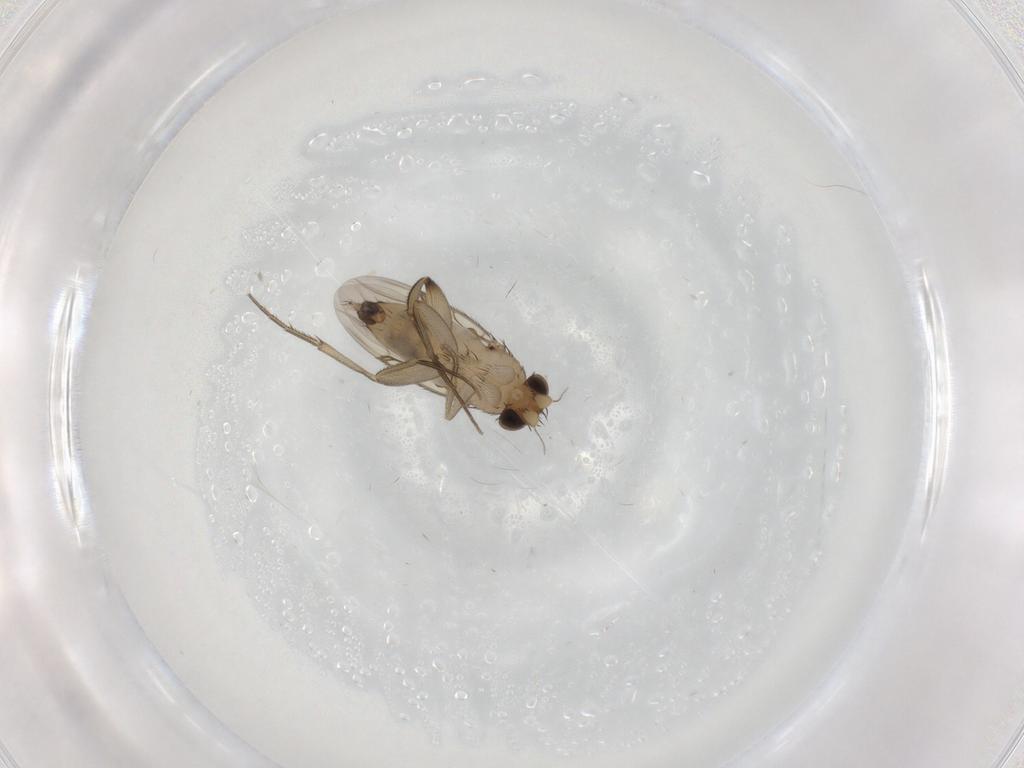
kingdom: Animalia
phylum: Arthropoda
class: Insecta
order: Diptera
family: Phoridae
